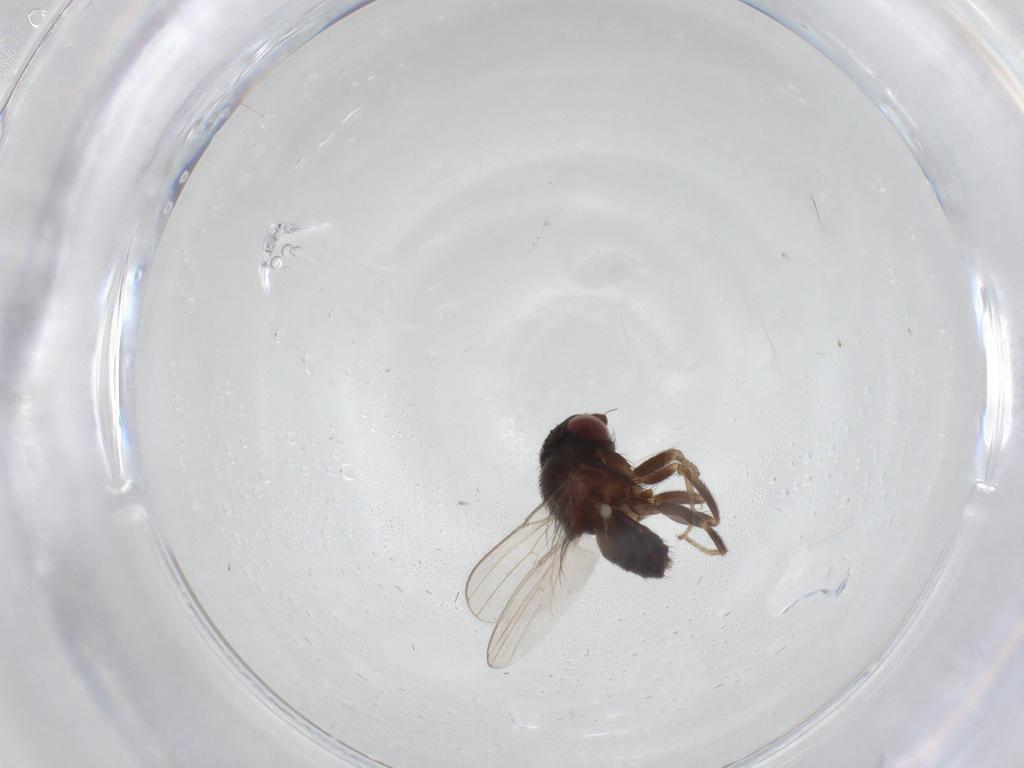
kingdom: Animalia
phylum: Arthropoda
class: Insecta
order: Diptera
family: Milichiidae
